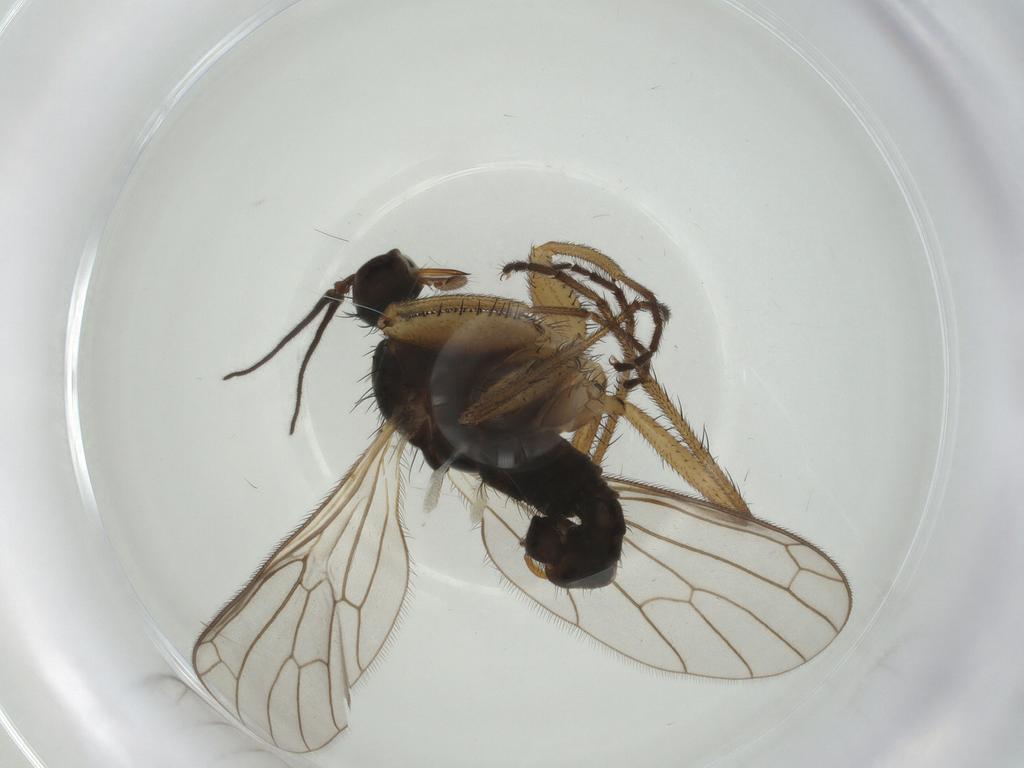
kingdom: Animalia
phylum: Arthropoda
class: Insecta
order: Diptera
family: Chironomidae
